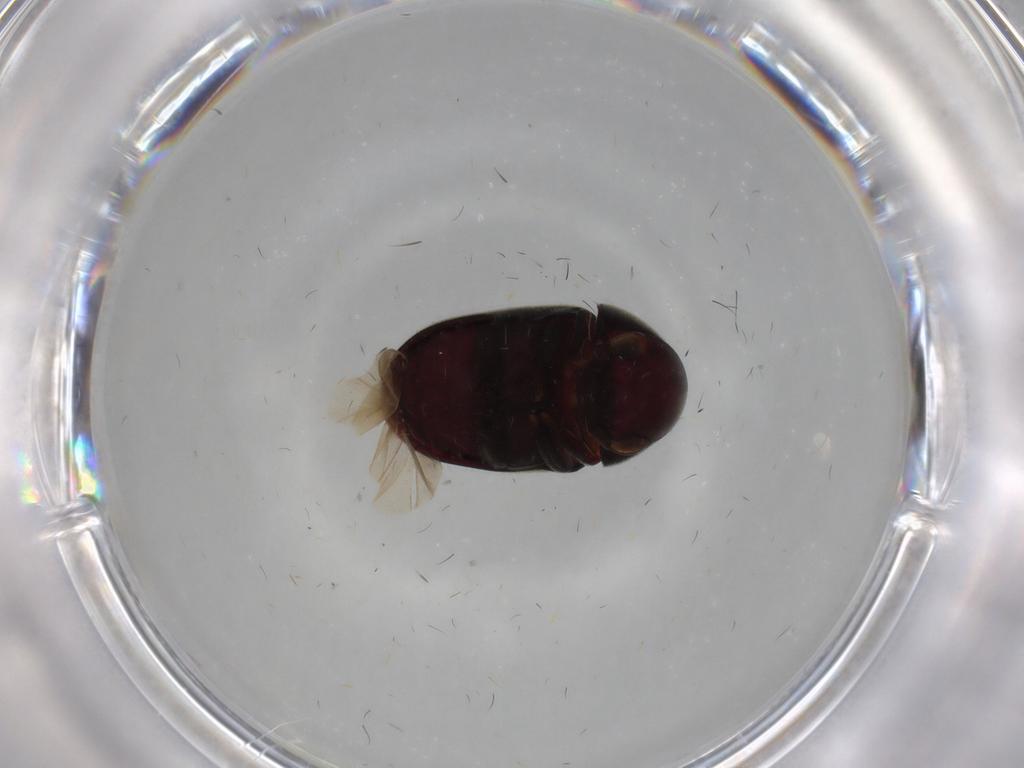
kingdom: Animalia
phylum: Arthropoda
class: Insecta
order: Coleoptera
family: Ptinidae
